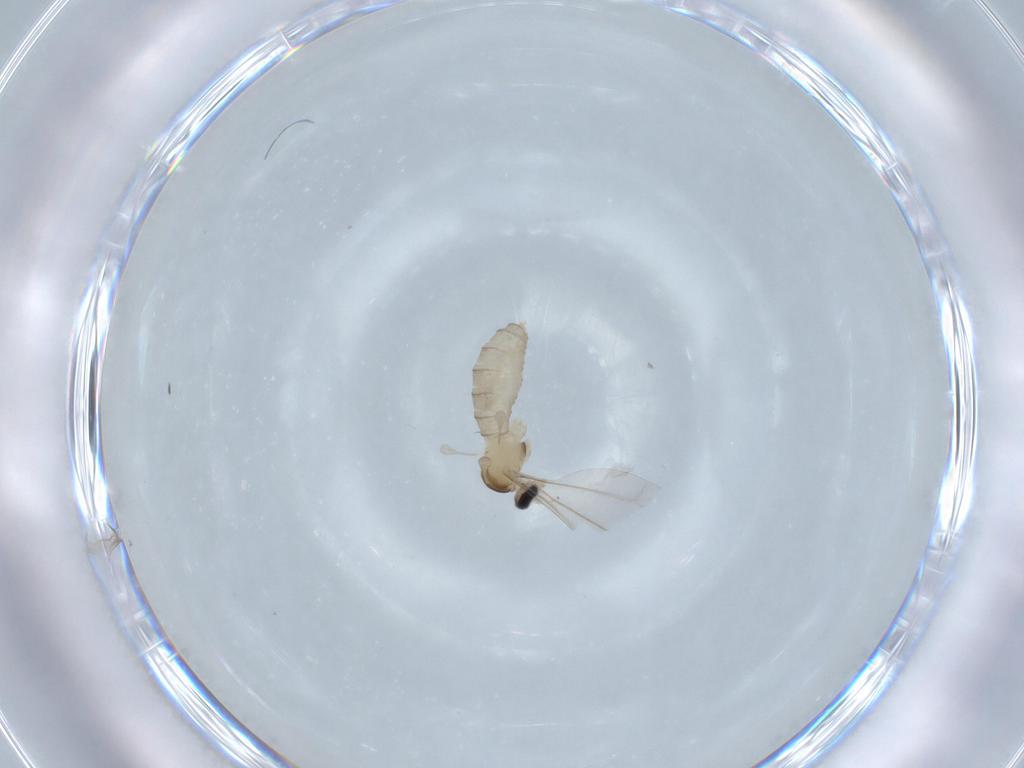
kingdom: Animalia
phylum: Arthropoda
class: Insecta
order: Diptera
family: Cecidomyiidae
